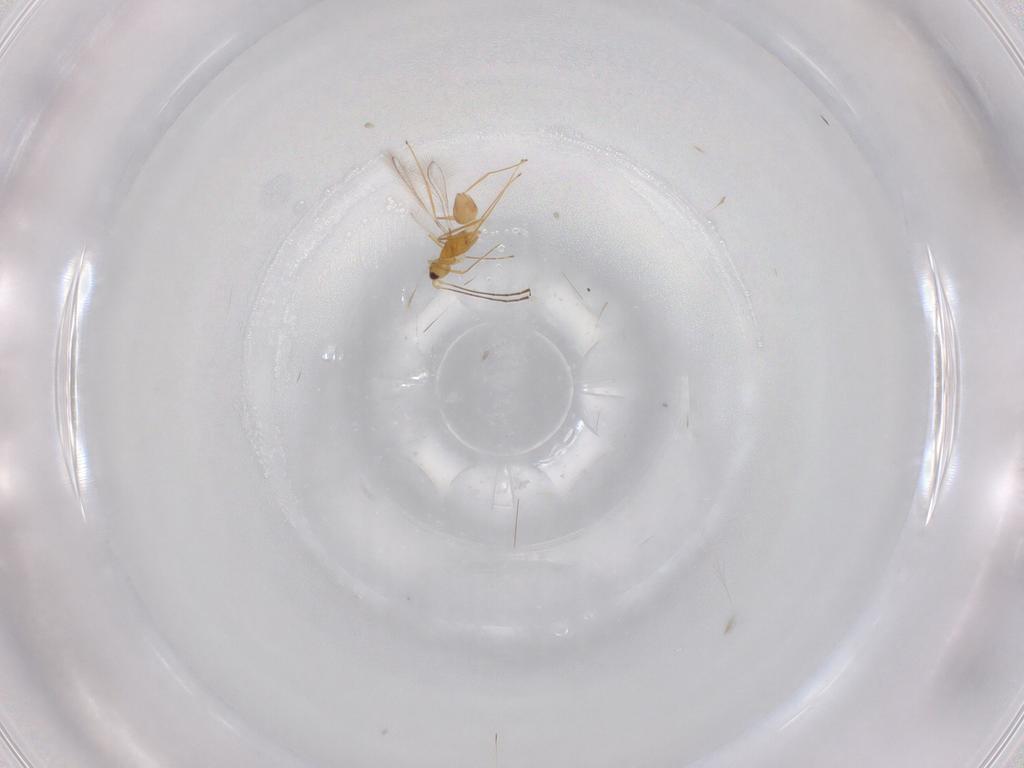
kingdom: Animalia
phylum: Arthropoda
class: Insecta
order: Hymenoptera
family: Mymaridae
